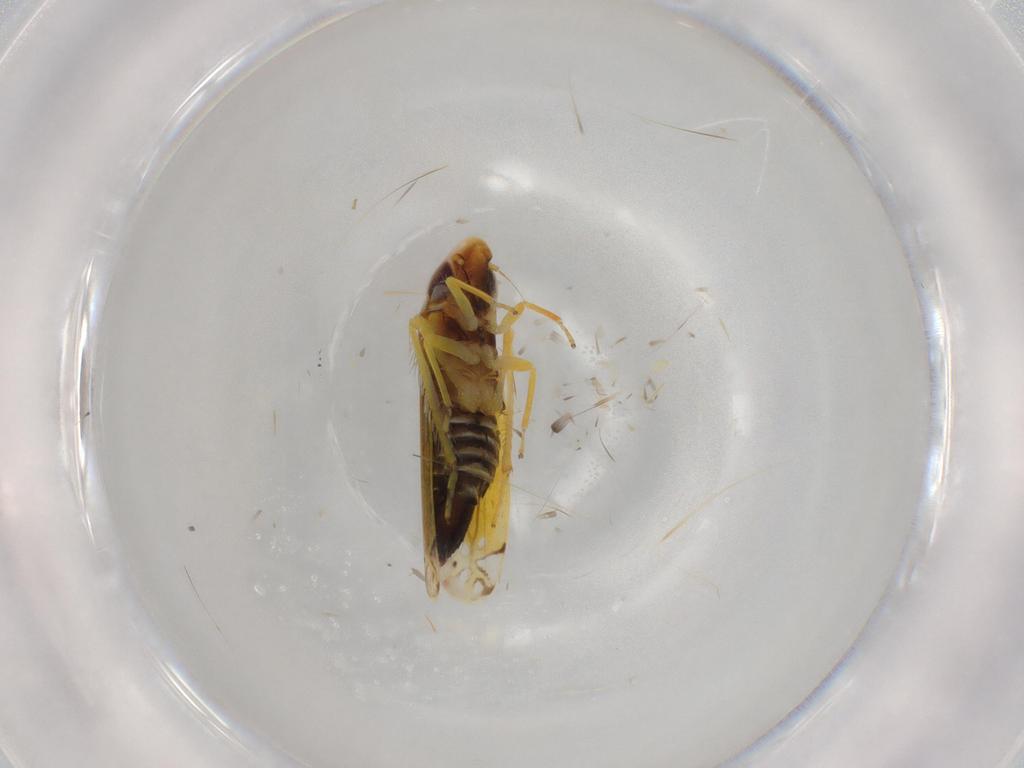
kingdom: Animalia
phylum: Arthropoda
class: Insecta
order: Hemiptera
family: Cicadellidae
